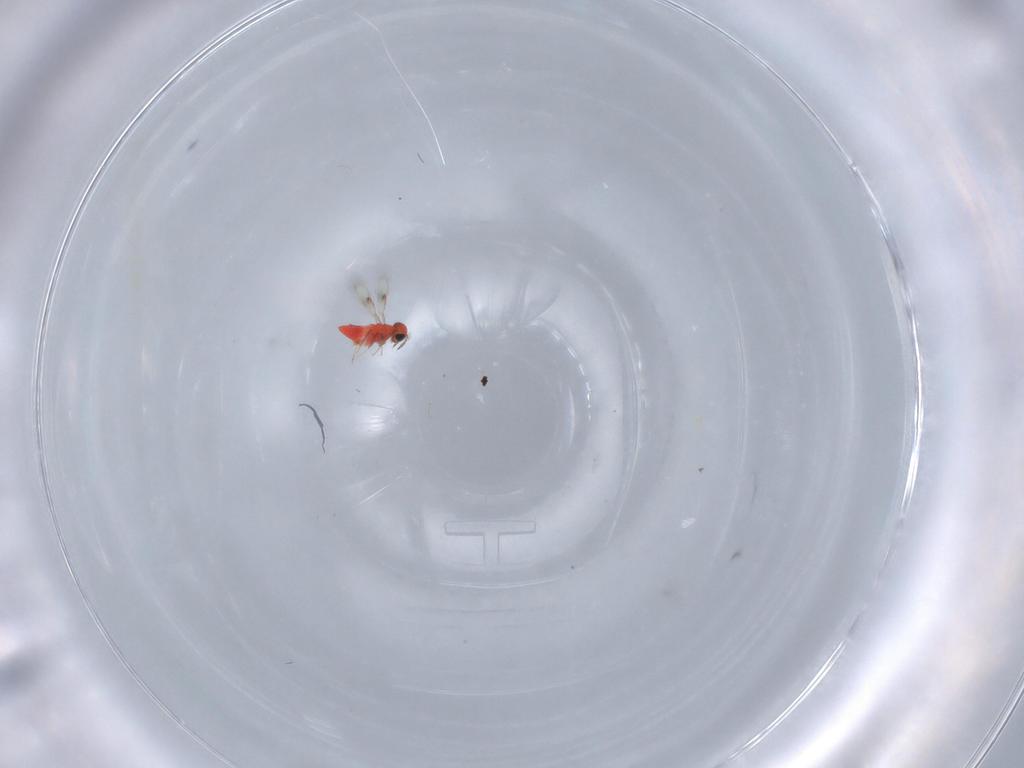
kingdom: Animalia
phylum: Arthropoda
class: Insecta
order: Hymenoptera
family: Trichogrammatidae
